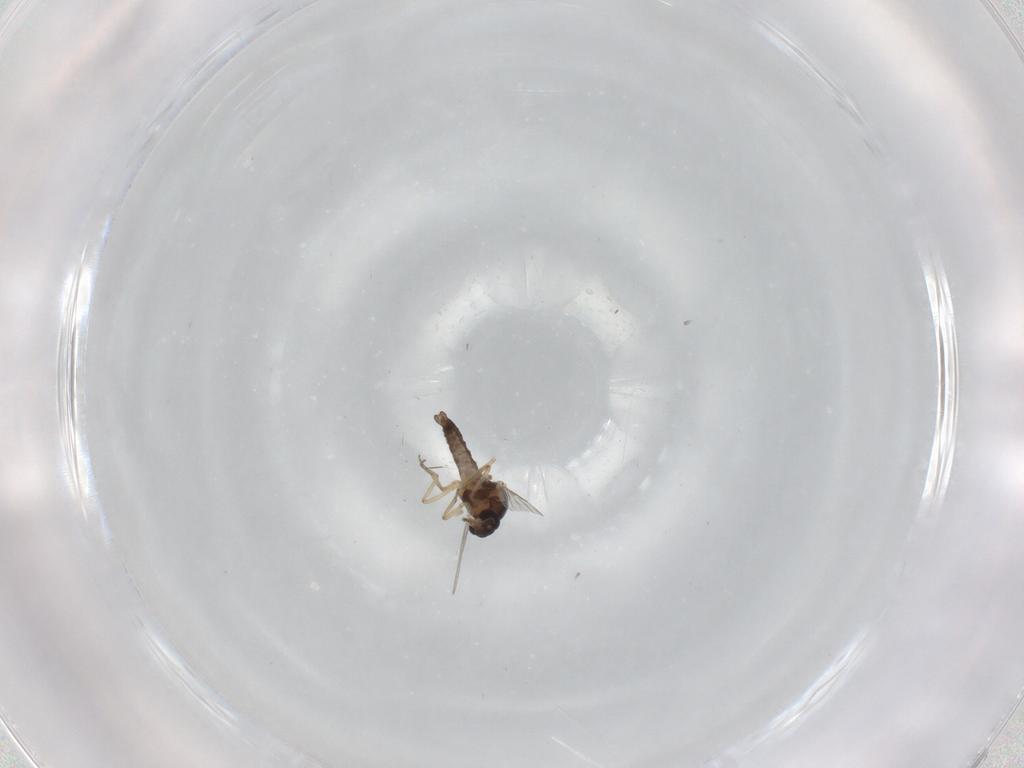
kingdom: Animalia
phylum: Arthropoda
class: Insecta
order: Diptera
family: Ceratopogonidae
